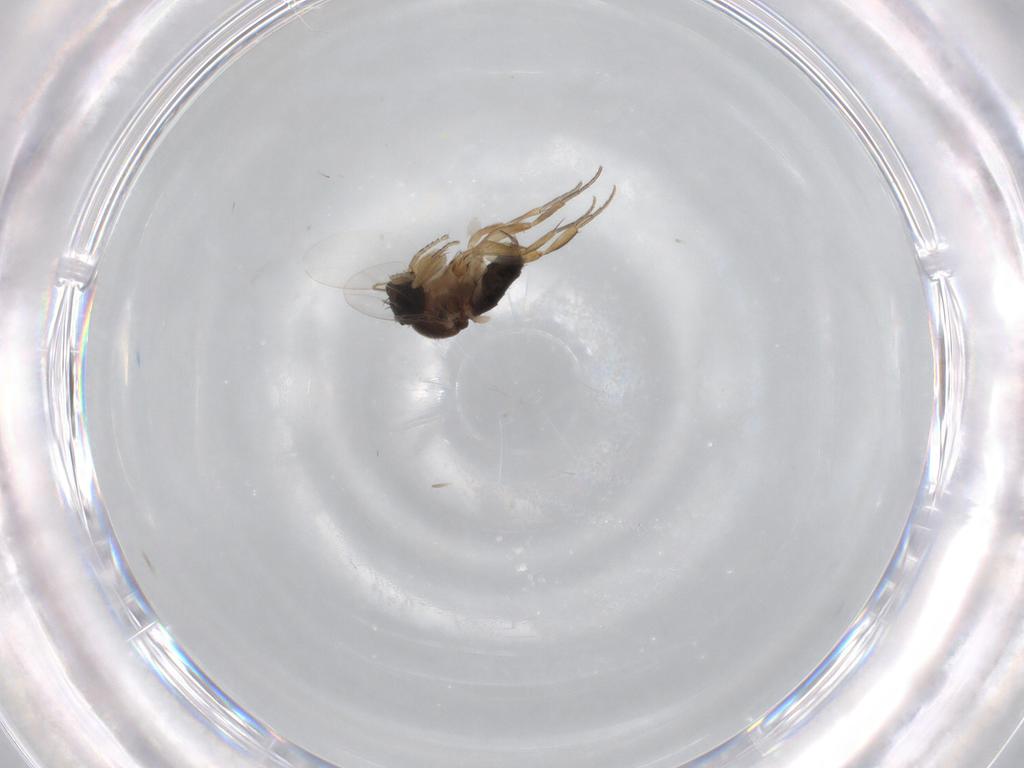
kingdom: Animalia
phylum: Arthropoda
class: Insecta
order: Diptera
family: Phoridae
